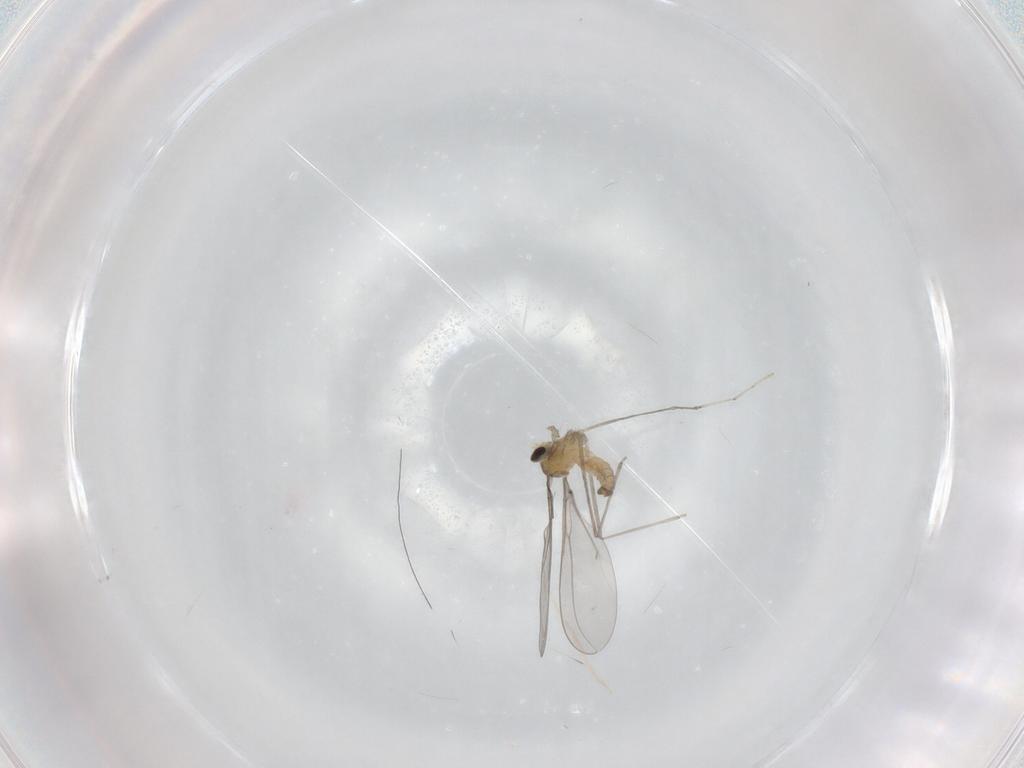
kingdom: Animalia
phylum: Arthropoda
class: Insecta
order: Diptera
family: Cecidomyiidae
